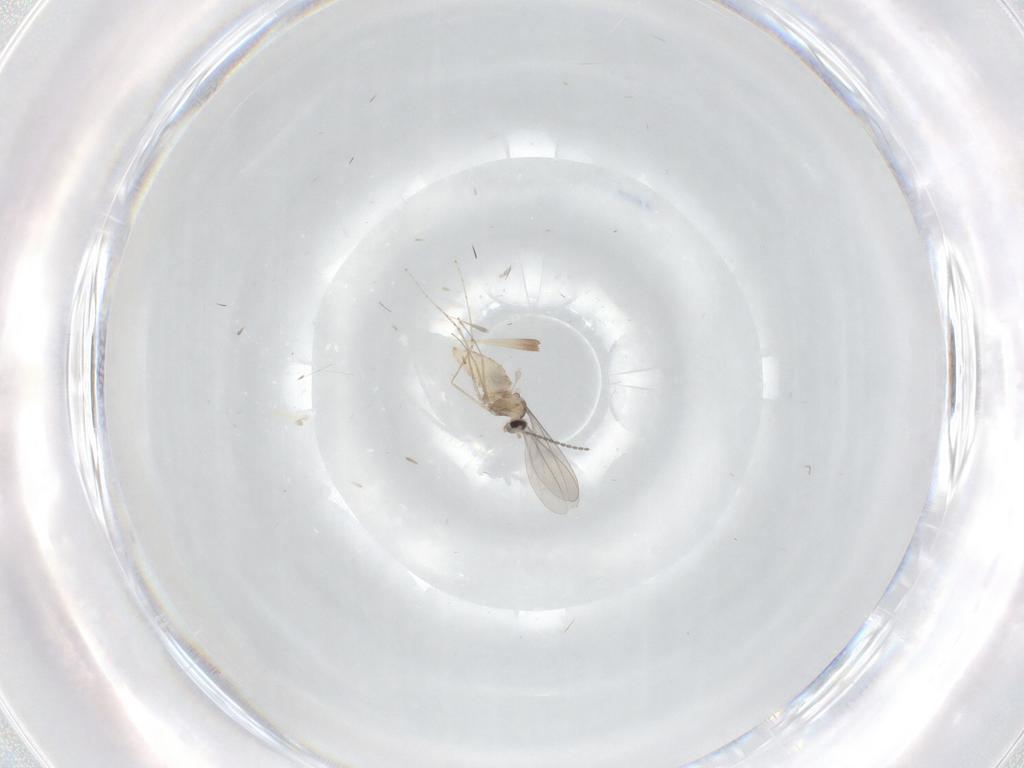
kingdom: Animalia
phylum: Arthropoda
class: Insecta
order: Diptera
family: Cecidomyiidae
